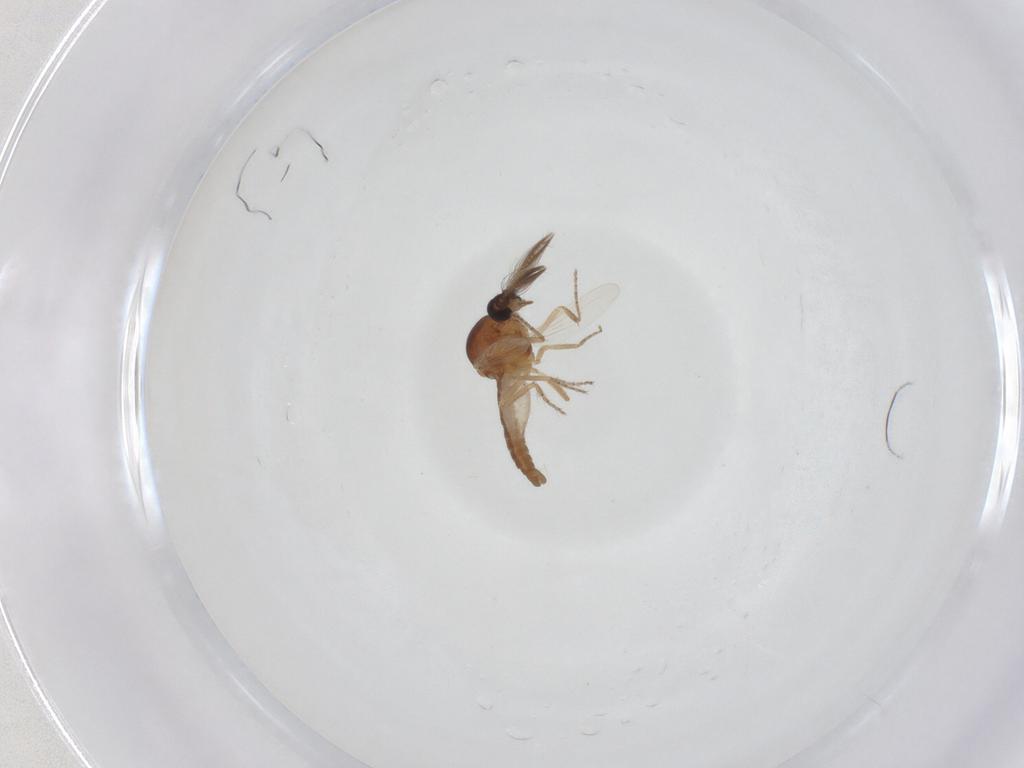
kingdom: Animalia
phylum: Arthropoda
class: Insecta
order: Diptera
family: Ceratopogonidae
